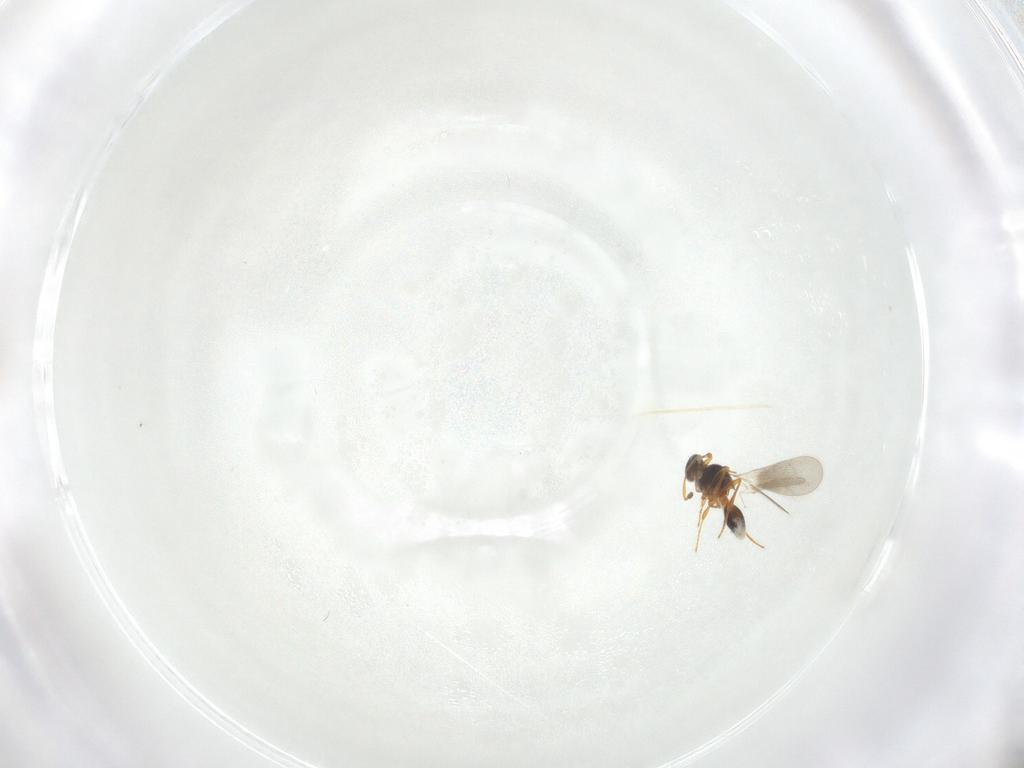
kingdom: Animalia
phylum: Arthropoda
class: Insecta
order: Hymenoptera
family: Platygastridae
